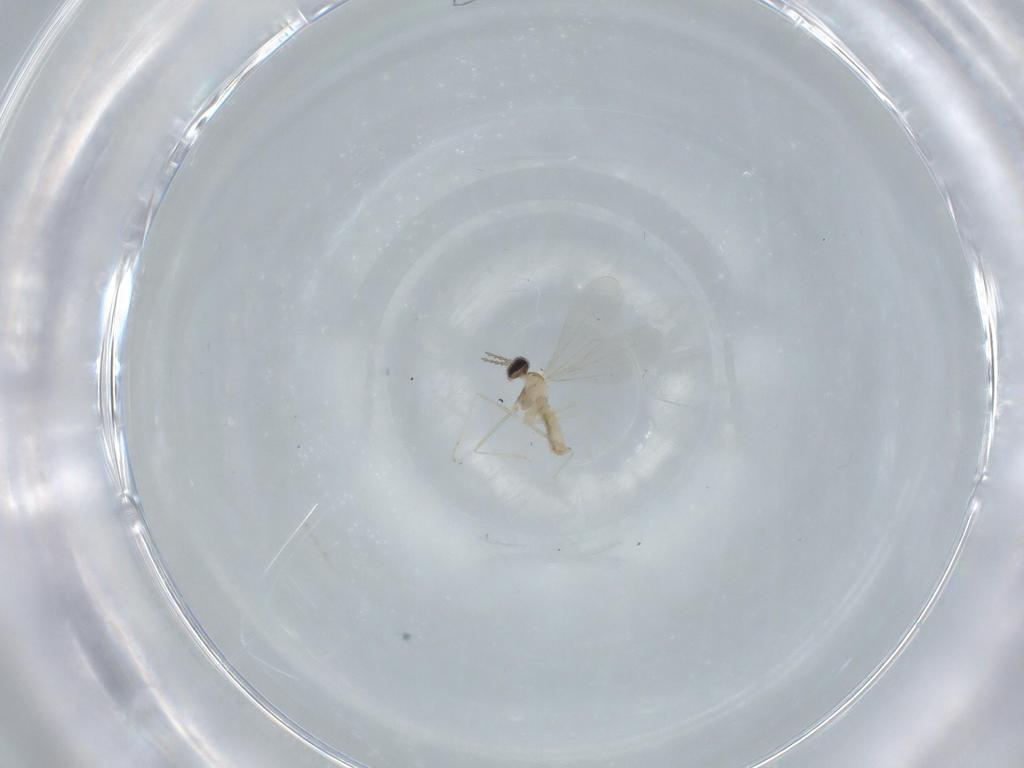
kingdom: Animalia
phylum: Arthropoda
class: Insecta
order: Diptera
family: Cecidomyiidae
